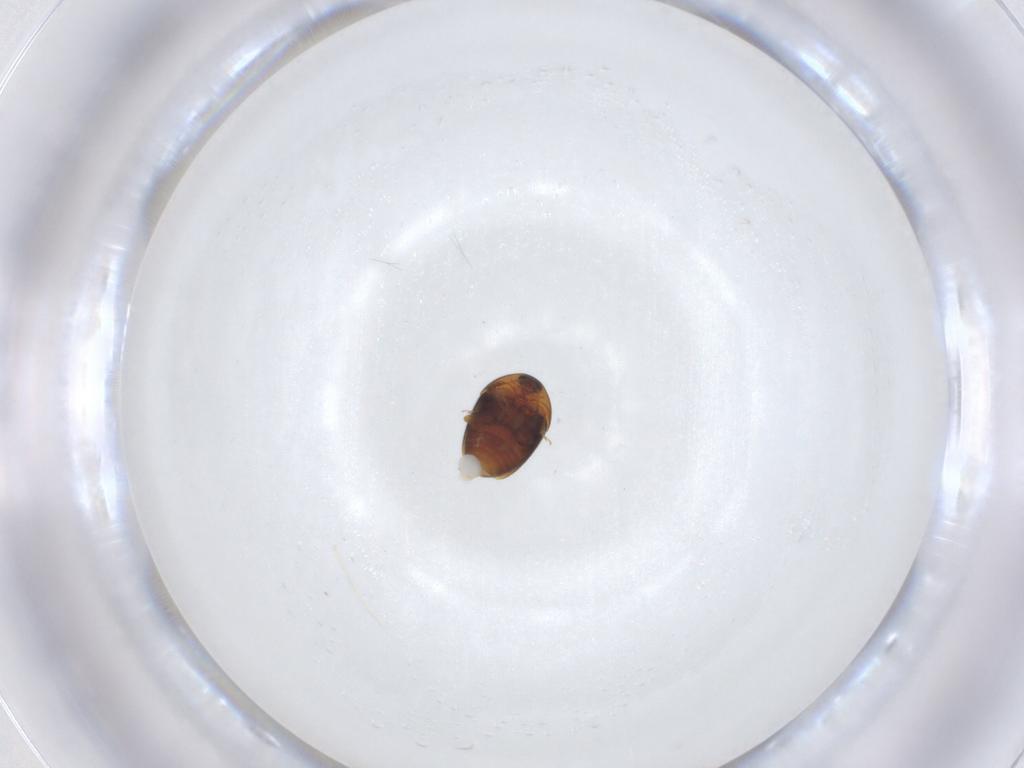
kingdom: Animalia
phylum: Arthropoda
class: Insecta
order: Coleoptera
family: Corylophidae
